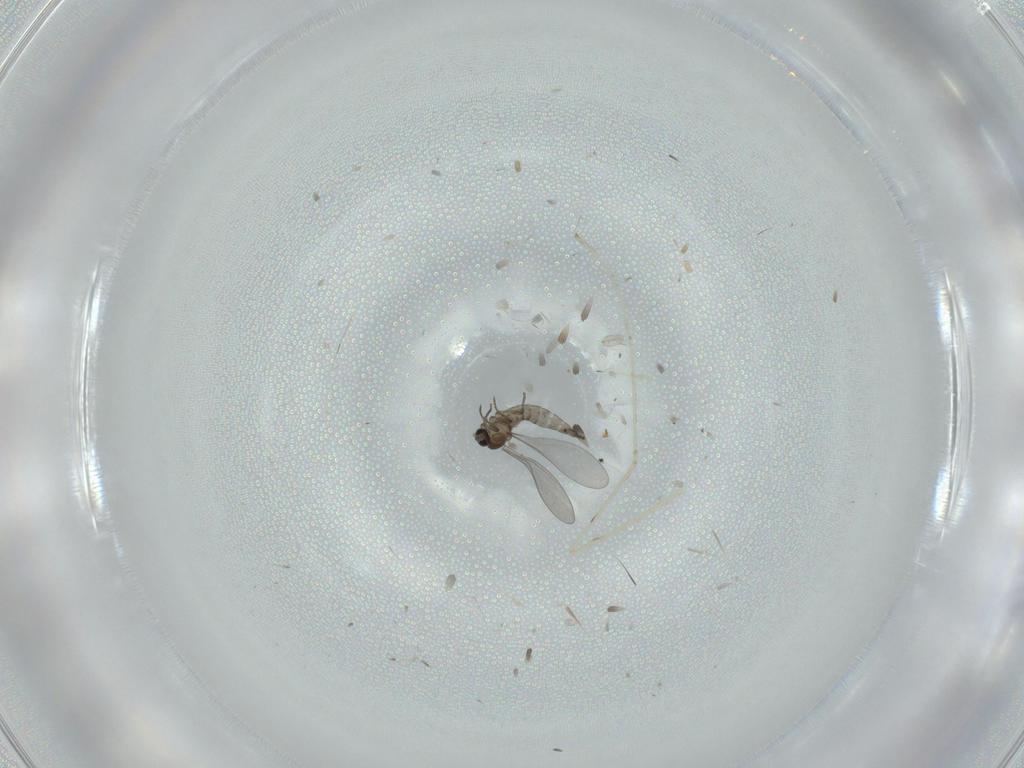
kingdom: Animalia
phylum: Arthropoda
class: Insecta
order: Diptera
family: Cecidomyiidae
